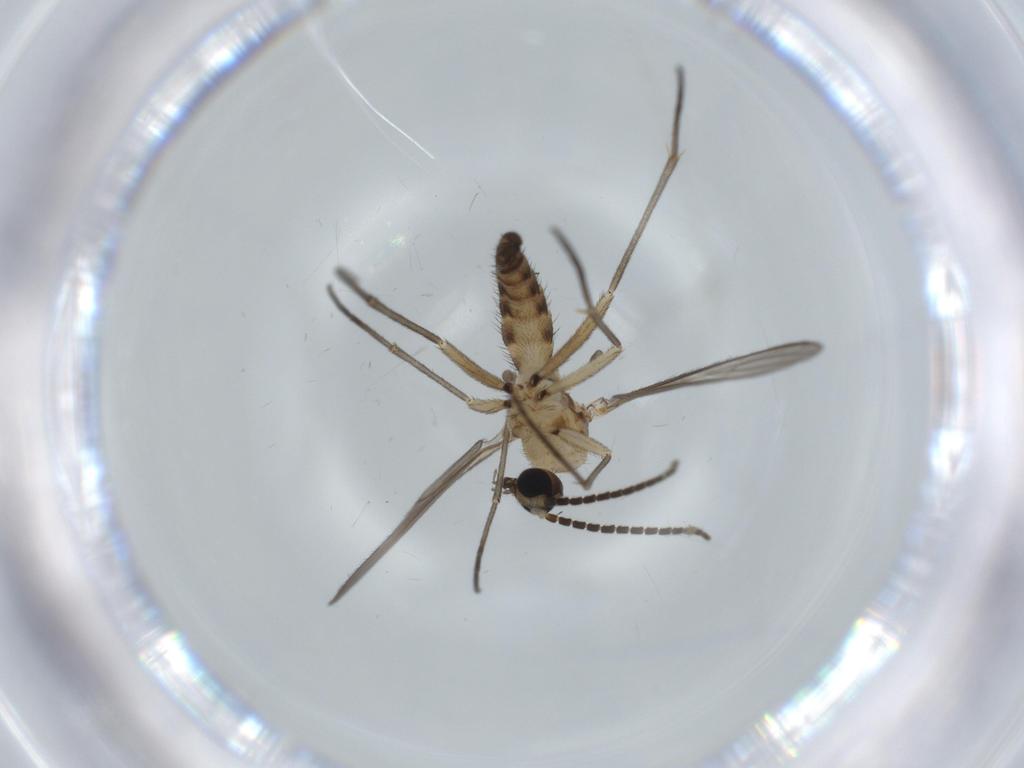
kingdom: Animalia
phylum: Arthropoda
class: Insecta
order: Diptera
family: Sciaridae
